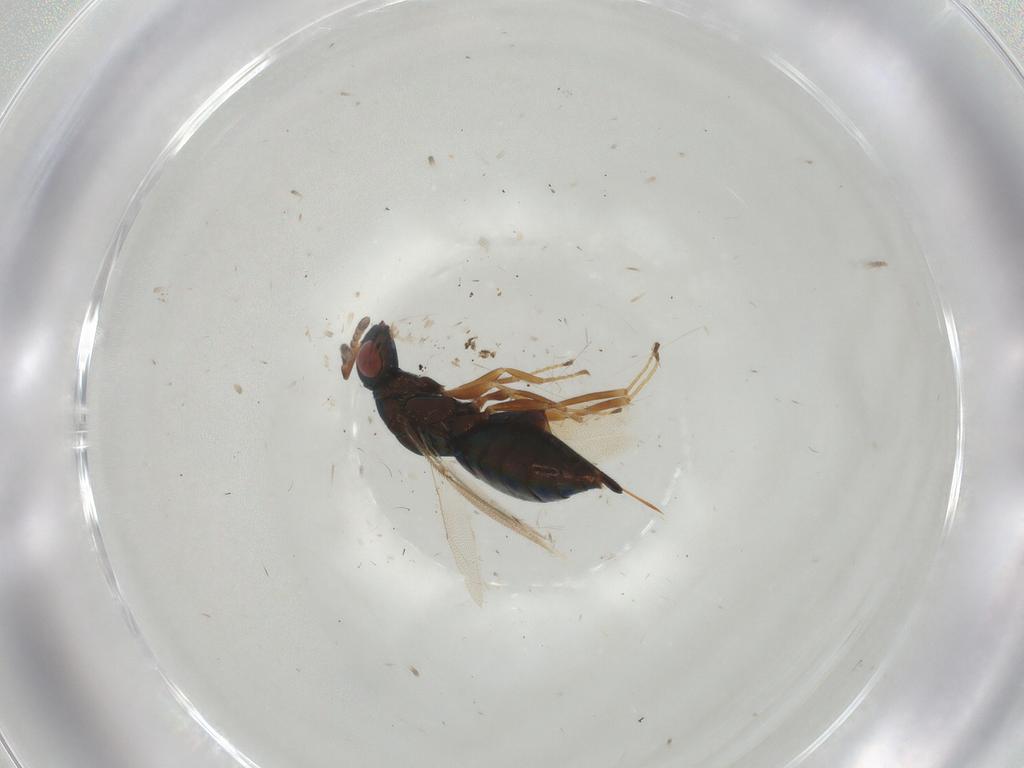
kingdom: Animalia
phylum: Arthropoda
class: Insecta
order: Hymenoptera
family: Pteromalidae
